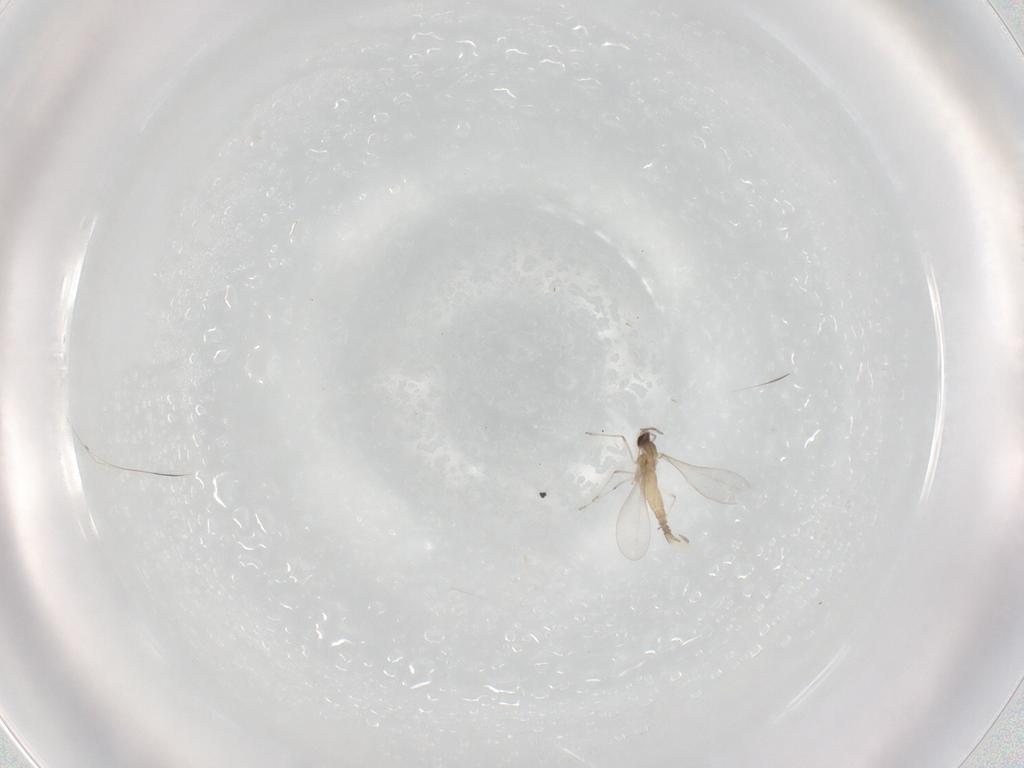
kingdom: Animalia
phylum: Arthropoda
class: Insecta
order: Diptera
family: Cecidomyiidae
